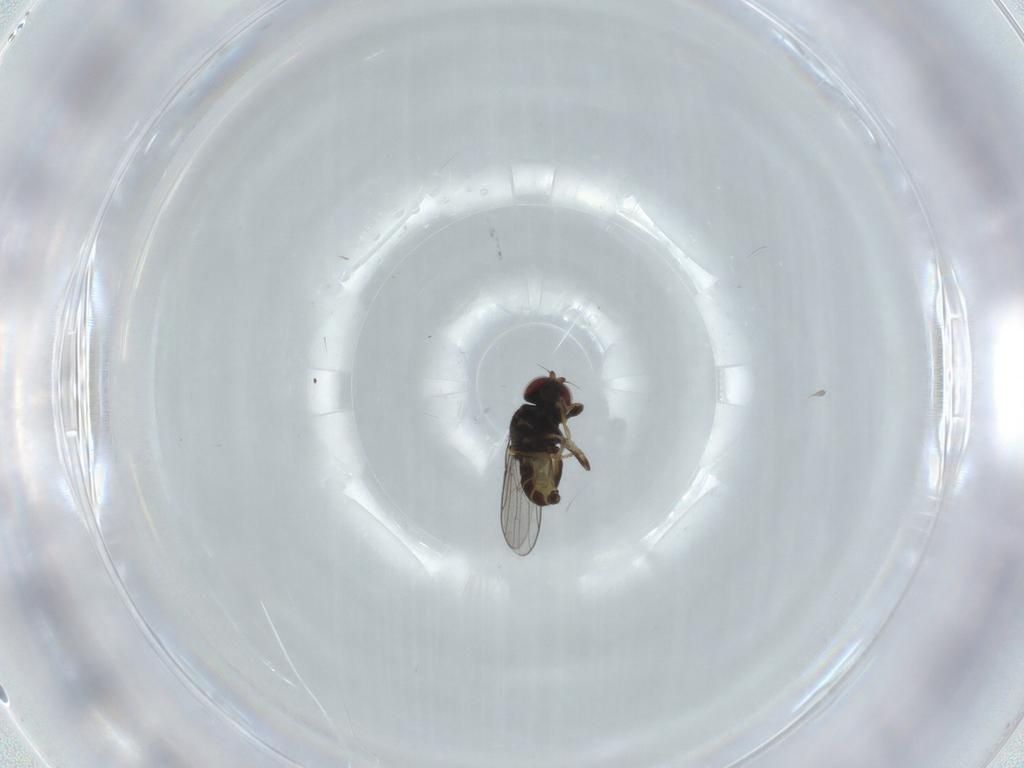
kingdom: Animalia
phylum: Arthropoda
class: Insecta
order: Diptera
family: Chloropidae
